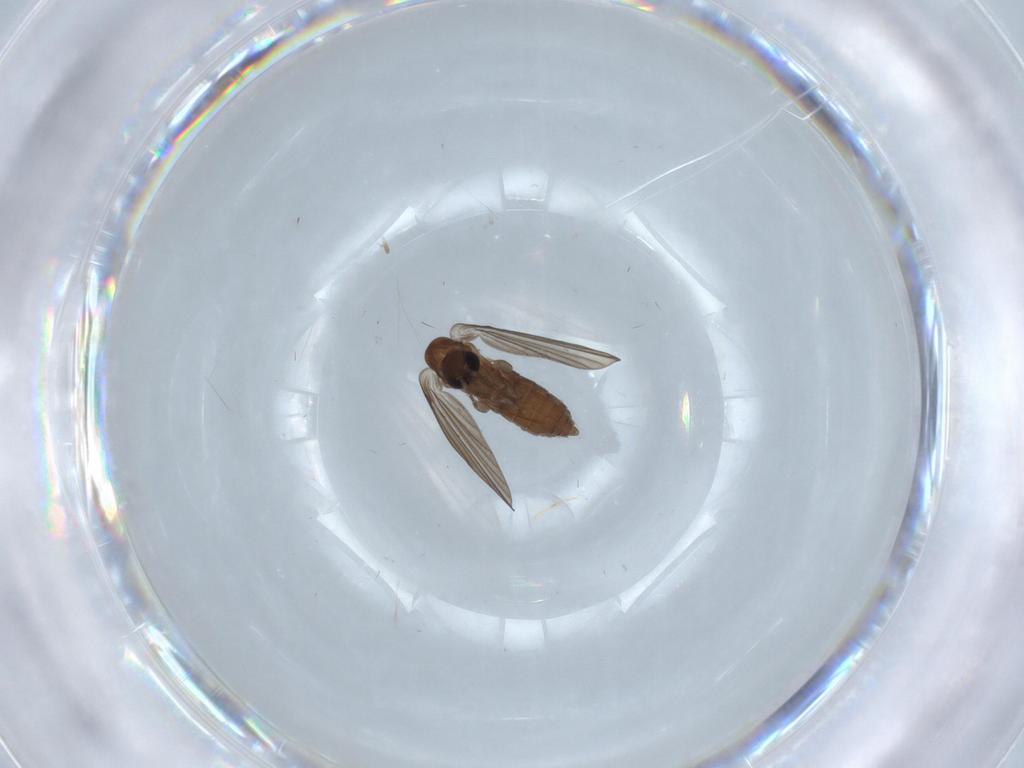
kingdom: Animalia
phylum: Arthropoda
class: Insecta
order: Diptera
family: Psychodidae
